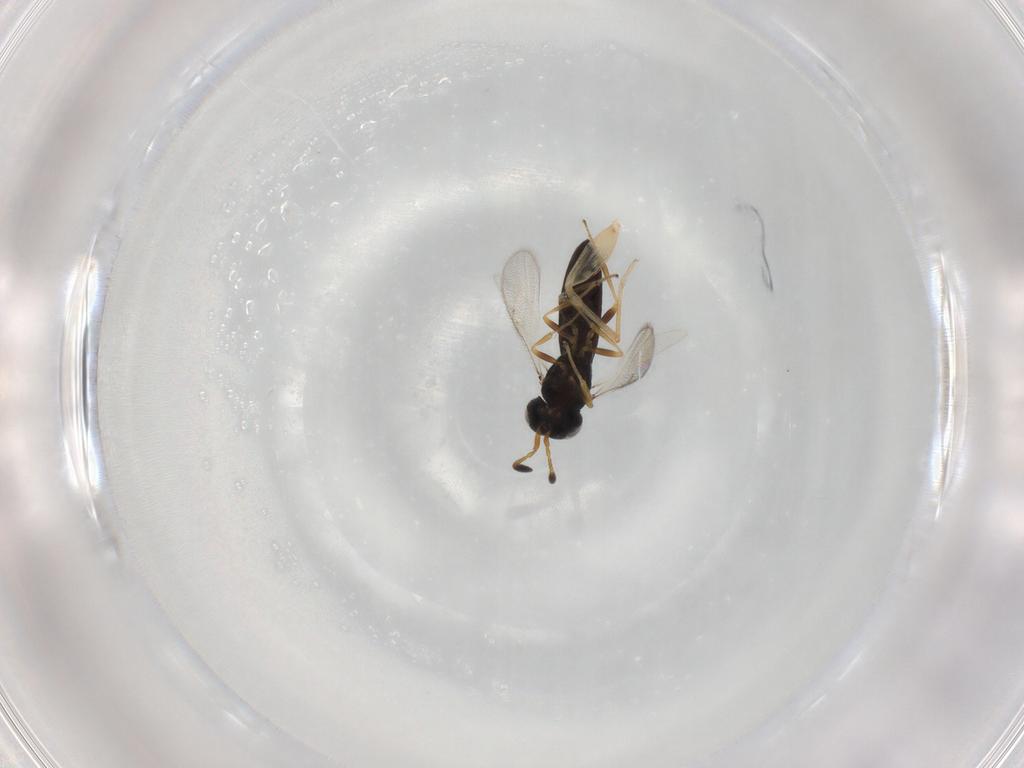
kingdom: Animalia
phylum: Arthropoda
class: Insecta
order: Hymenoptera
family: Scelionidae
